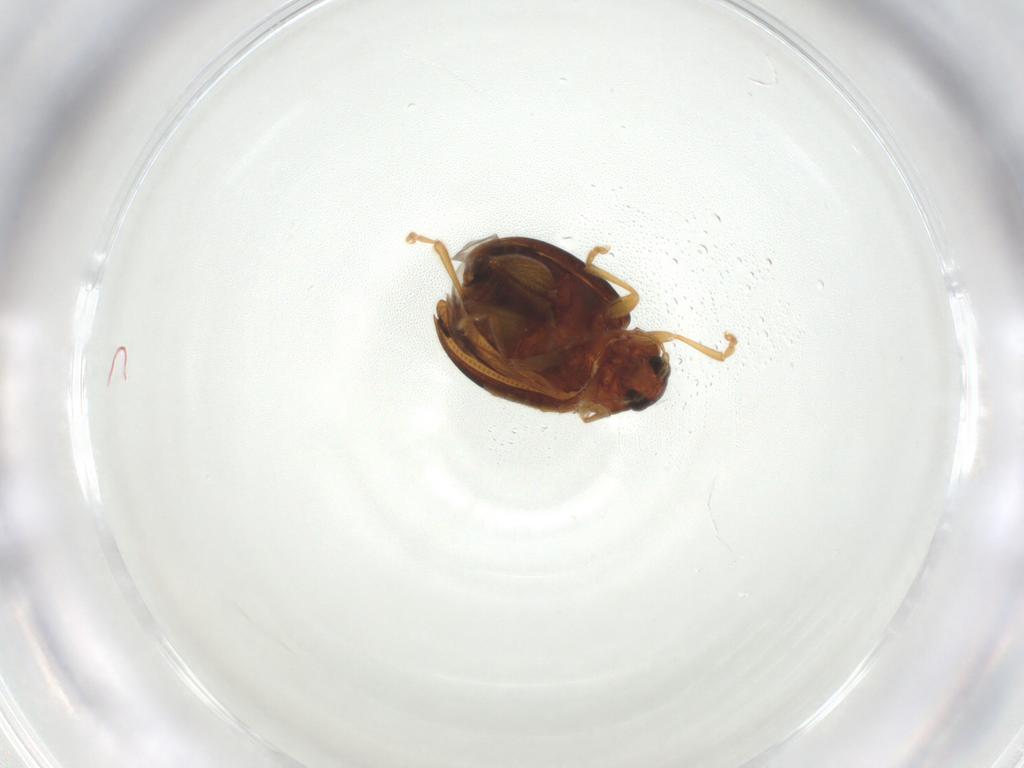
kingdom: Animalia
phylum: Arthropoda
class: Insecta
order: Coleoptera
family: Chrysomelidae
